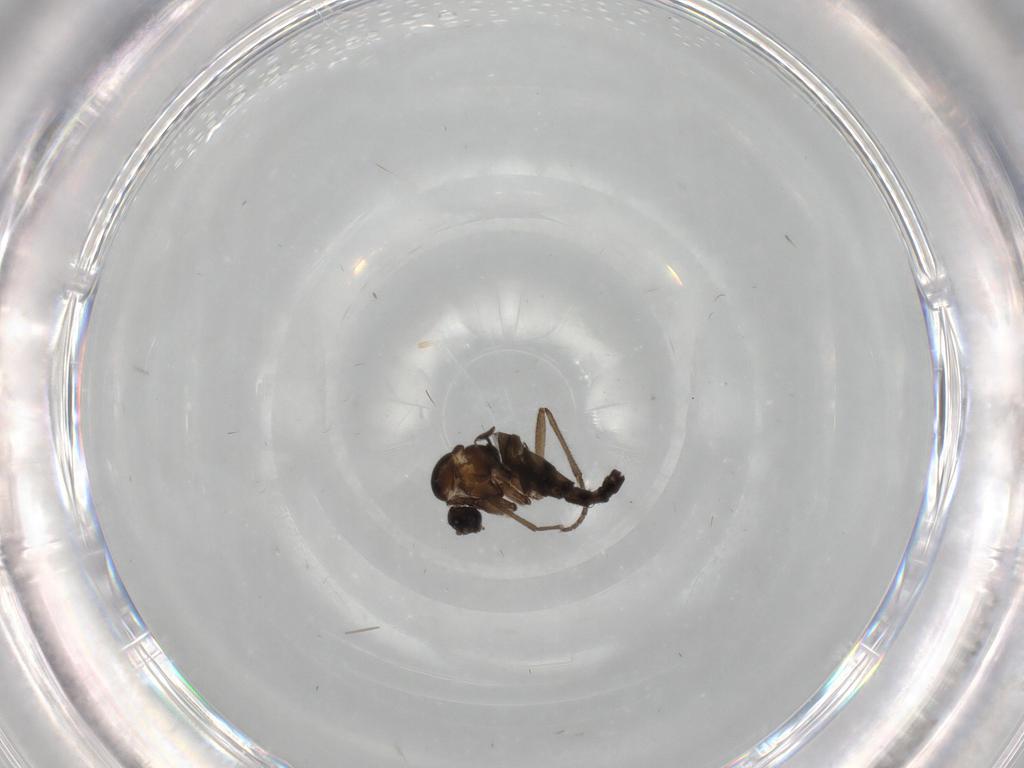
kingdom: Animalia
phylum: Arthropoda
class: Insecta
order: Diptera
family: Sciaridae
